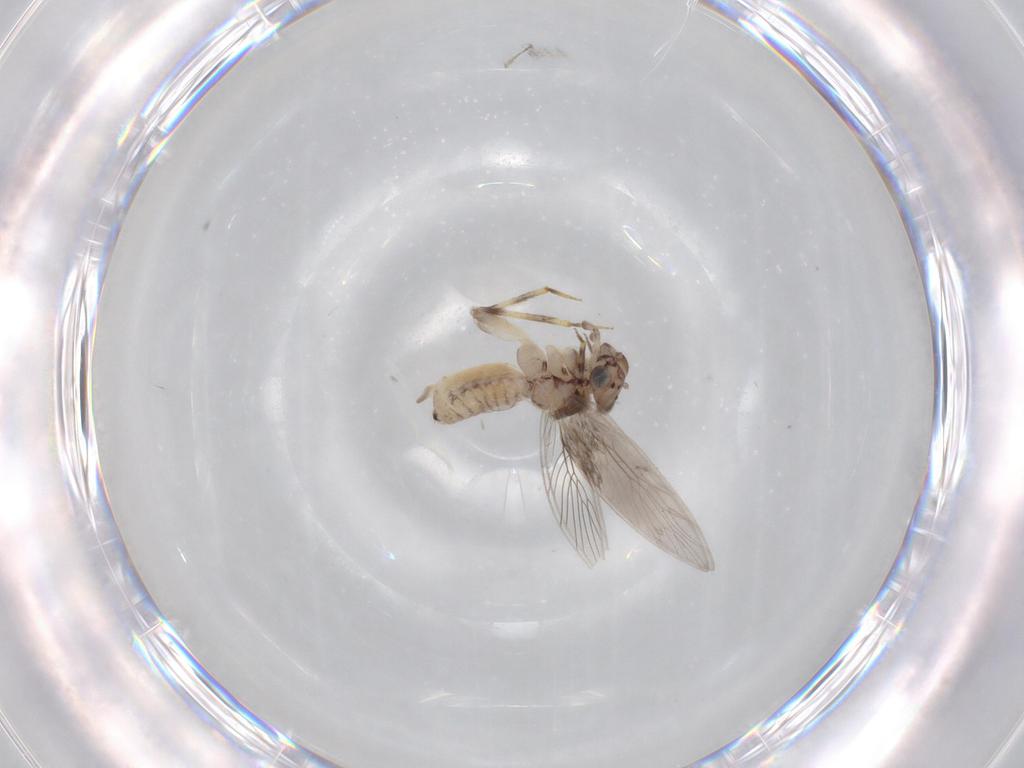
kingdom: Animalia
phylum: Arthropoda
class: Insecta
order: Psocodea
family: Lepidopsocidae
